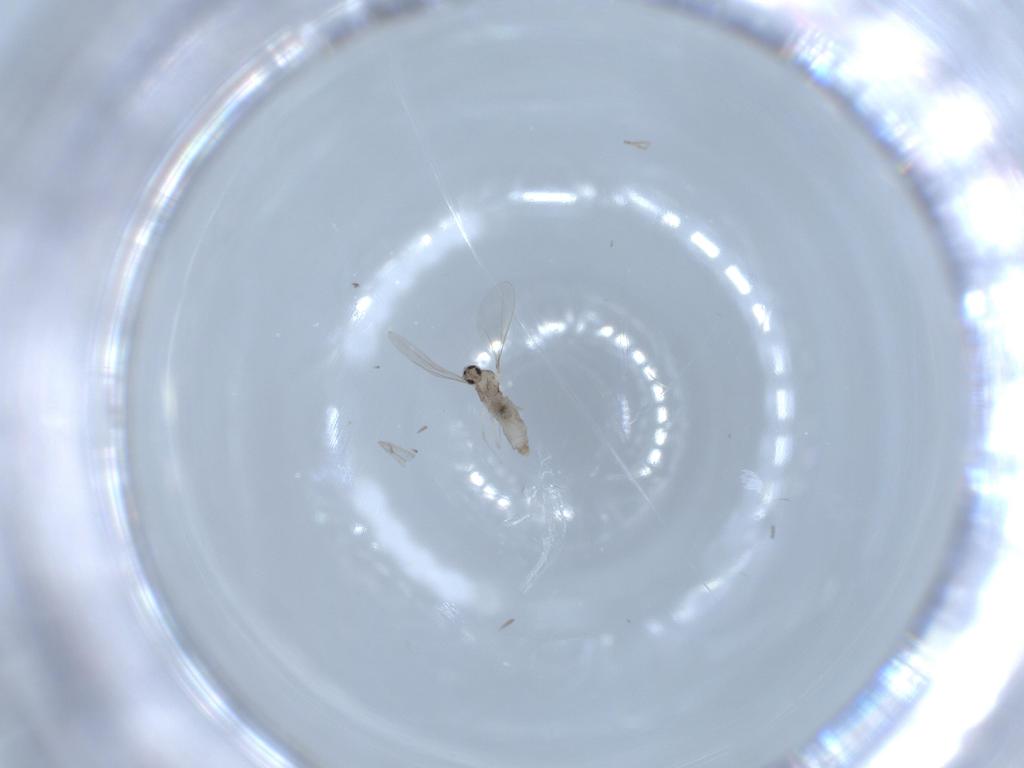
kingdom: Animalia
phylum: Arthropoda
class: Insecta
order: Diptera
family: Cecidomyiidae
